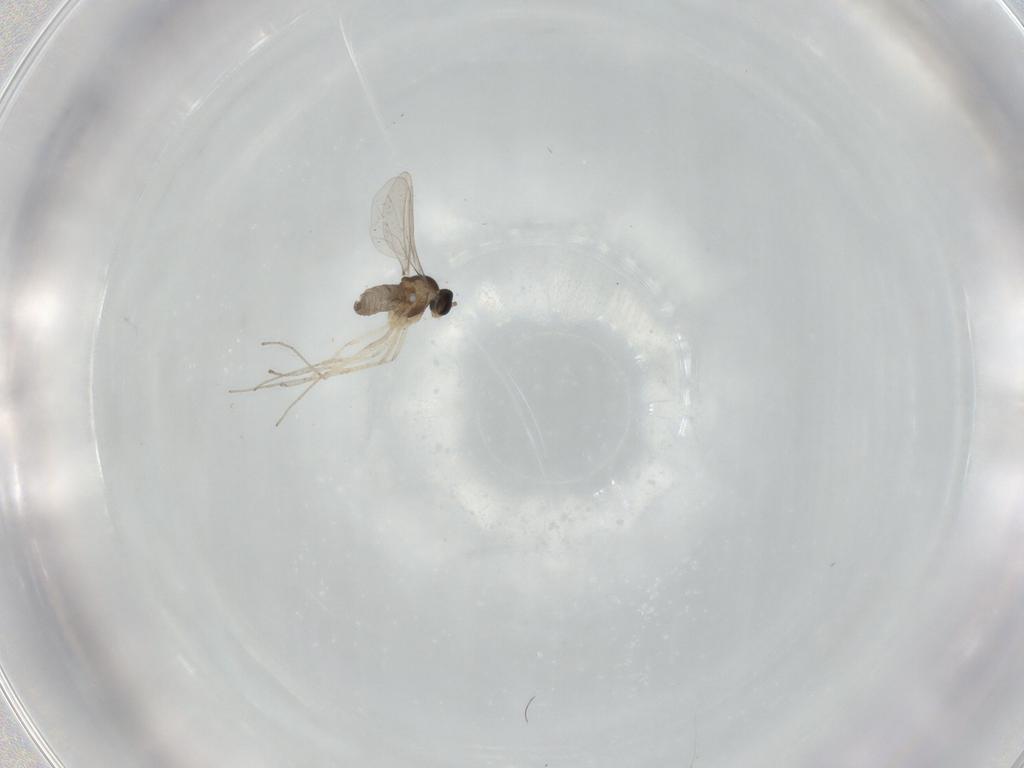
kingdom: Animalia
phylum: Arthropoda
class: Insecta
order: Diptera
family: Cecidomyiidae
